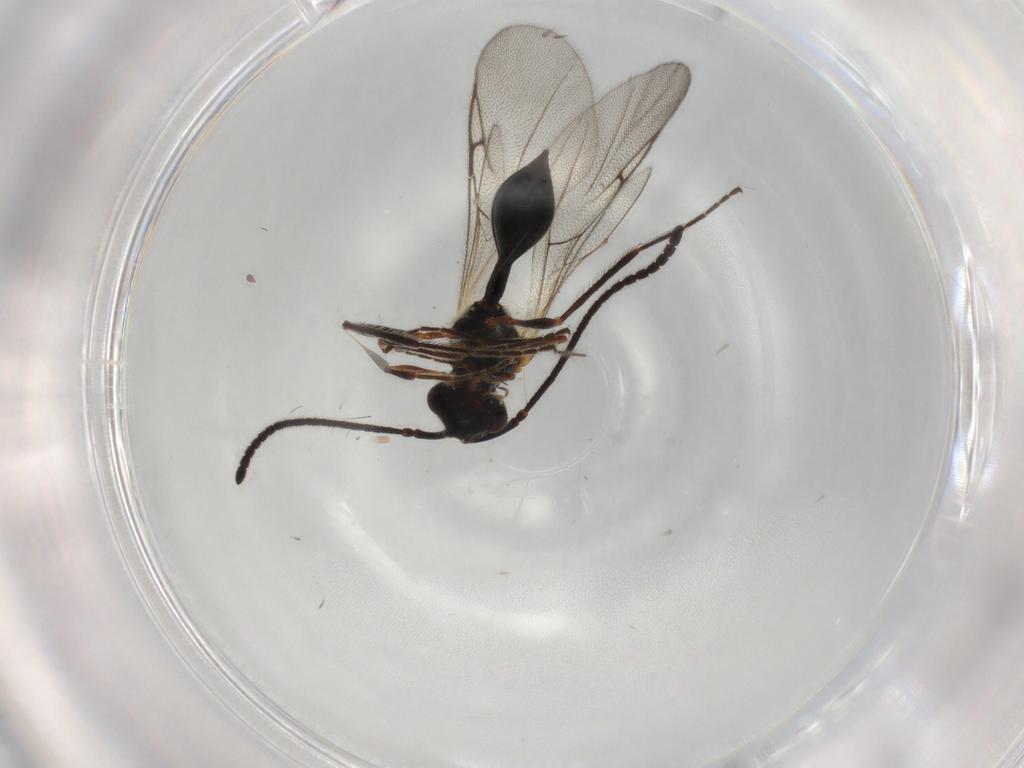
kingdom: Animalia
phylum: Arthropoda
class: Insecta
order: Hymenoptera
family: Diapriidae
